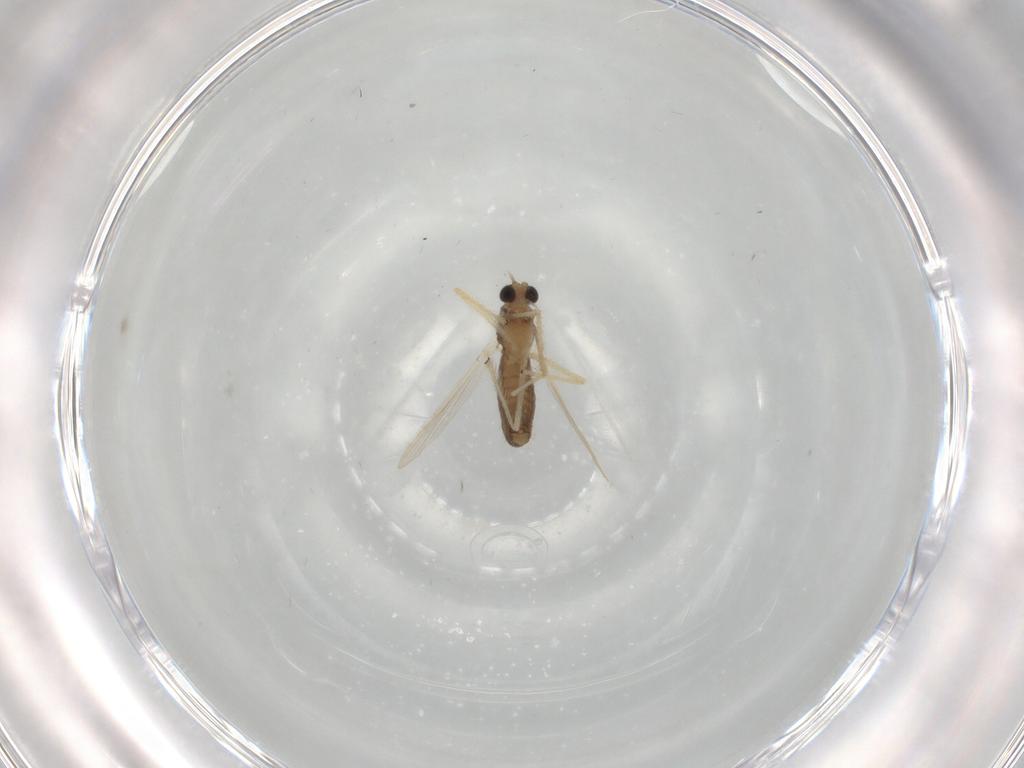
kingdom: Animalia
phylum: Arthropoda
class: Insecta
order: Diptera
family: Chironomidae
